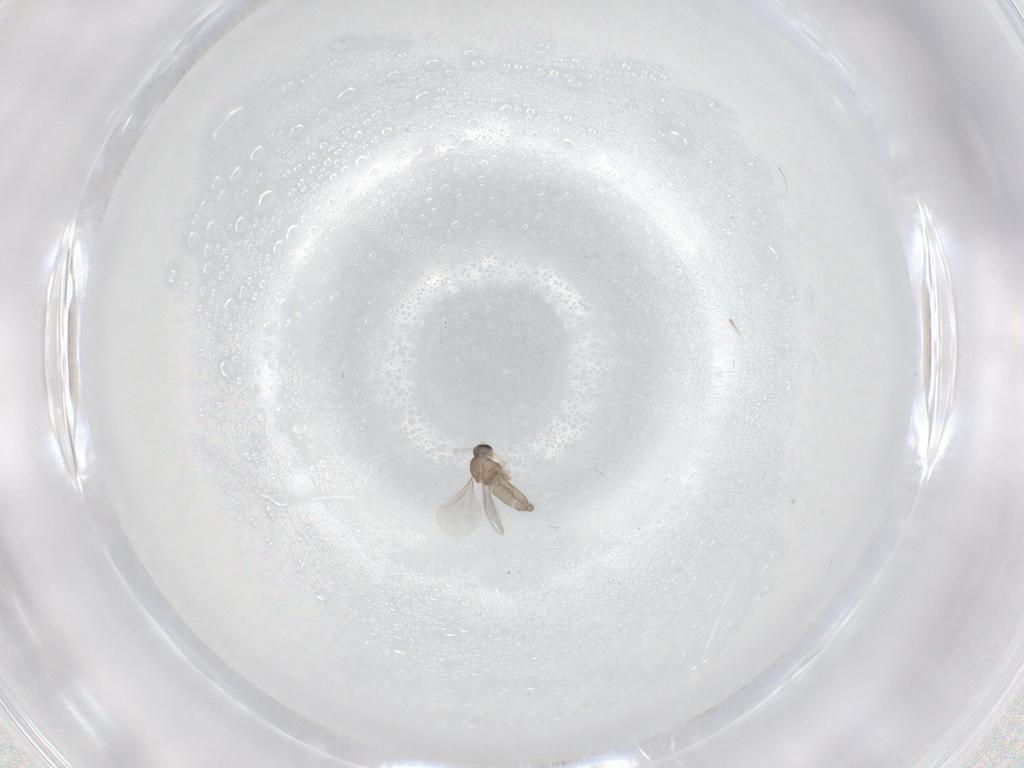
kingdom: Animalia
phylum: Arthropoda
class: Insecta
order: Diptera
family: Cecidomyiidae
